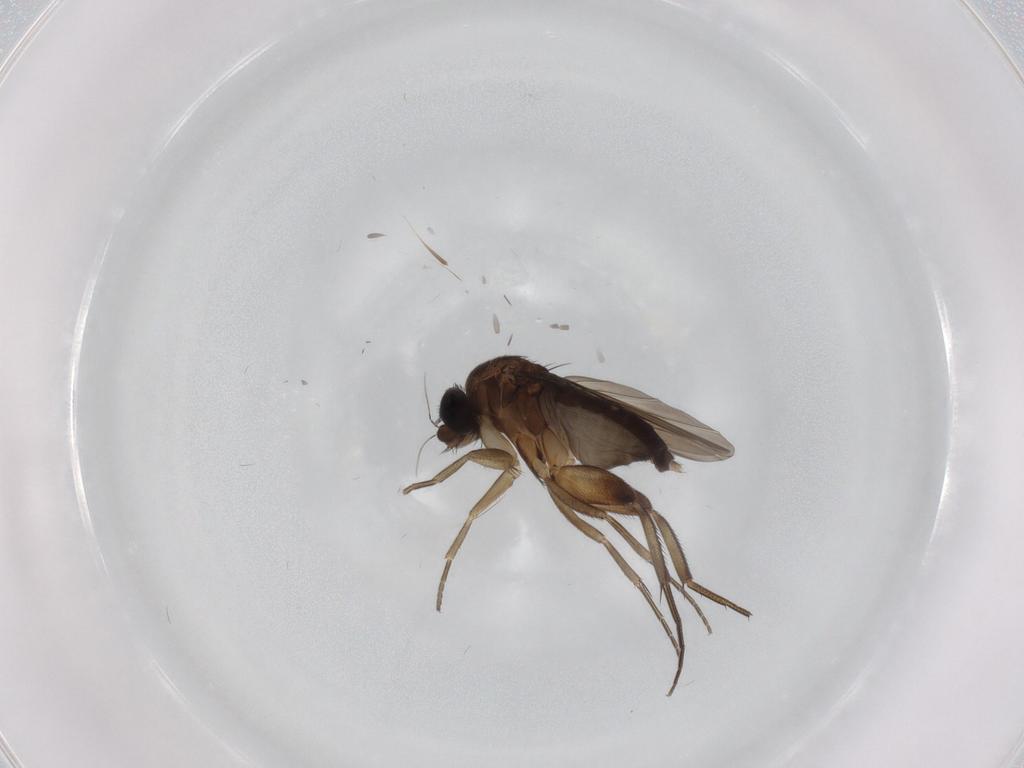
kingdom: Animalia
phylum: Arthropoda
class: Insecta
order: Diptera
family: Phoridae
